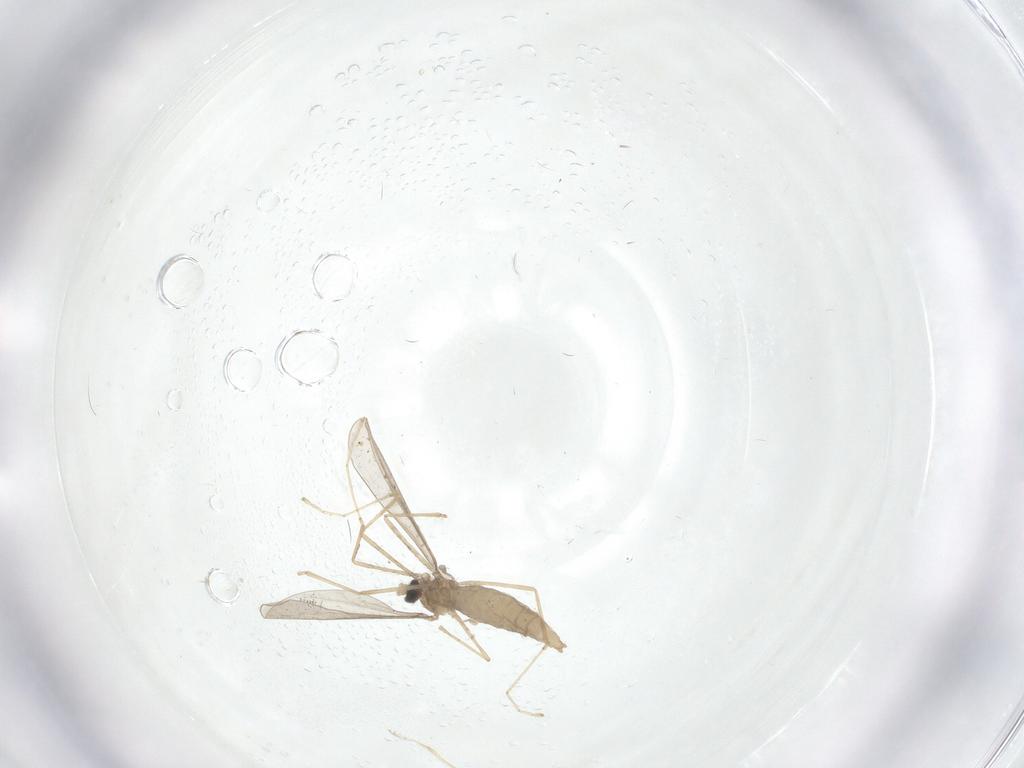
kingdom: Animalia
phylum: Arthropoda
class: Insecta
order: Diptera
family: Cecidomyiidae
